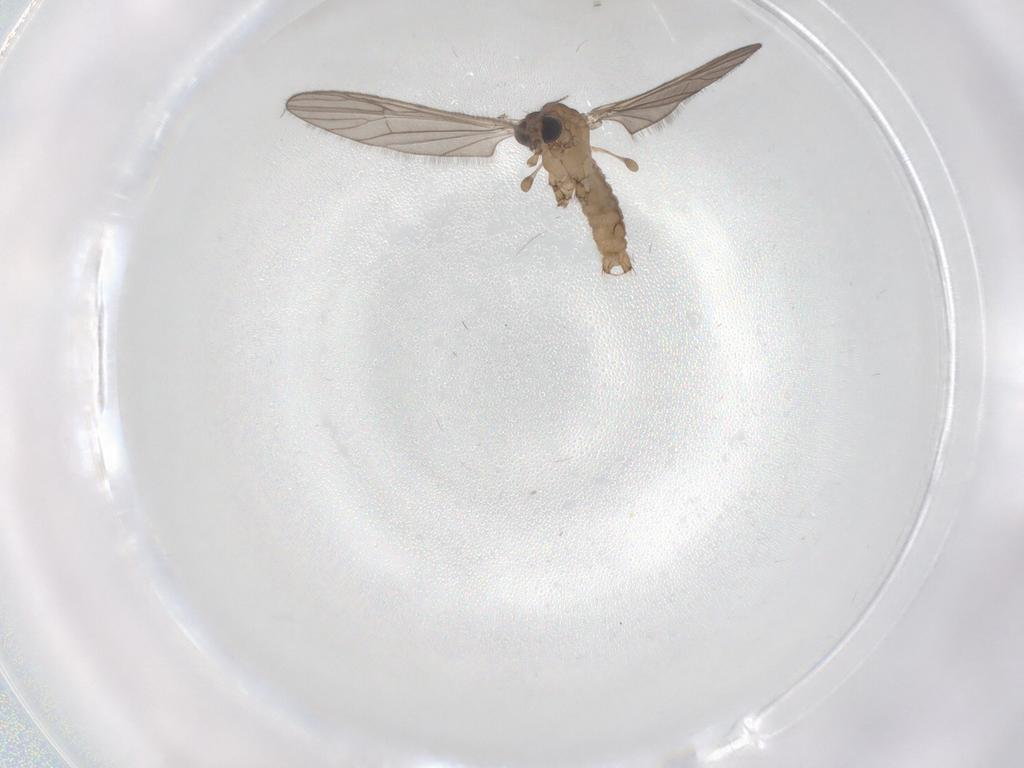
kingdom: Animalia
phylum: Arthropoda
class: Insecta
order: Diptera
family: Limoniidae
